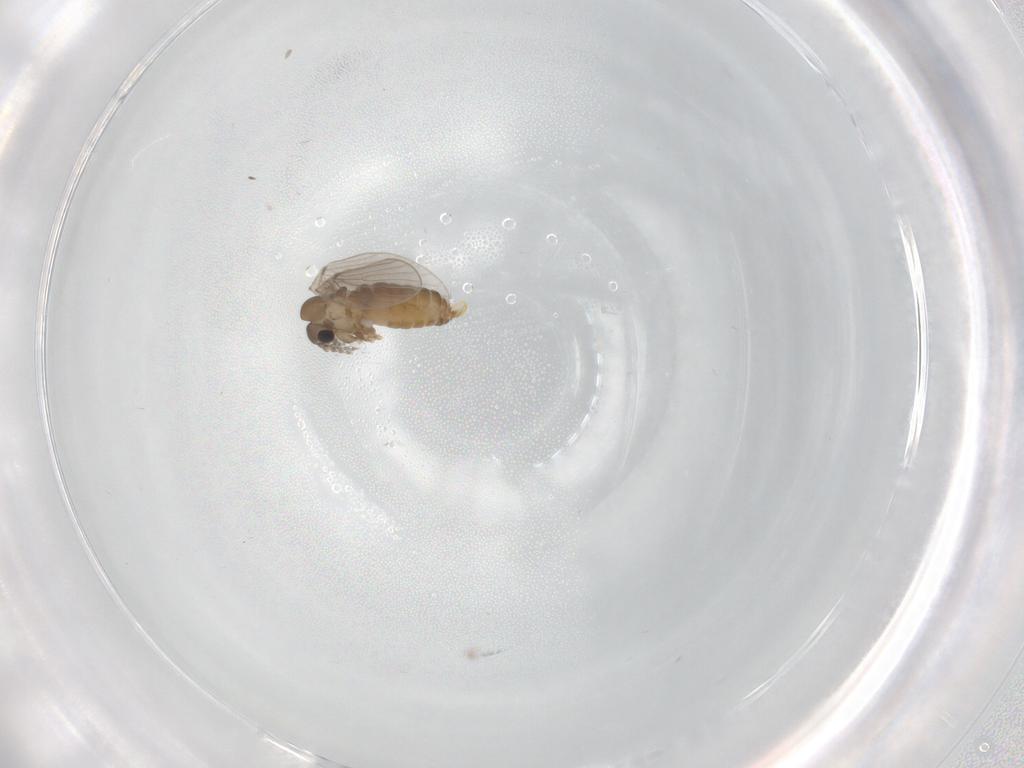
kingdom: Animalia
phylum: Arthropoda
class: Insecta
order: Diptera
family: Ceratopogonidae
